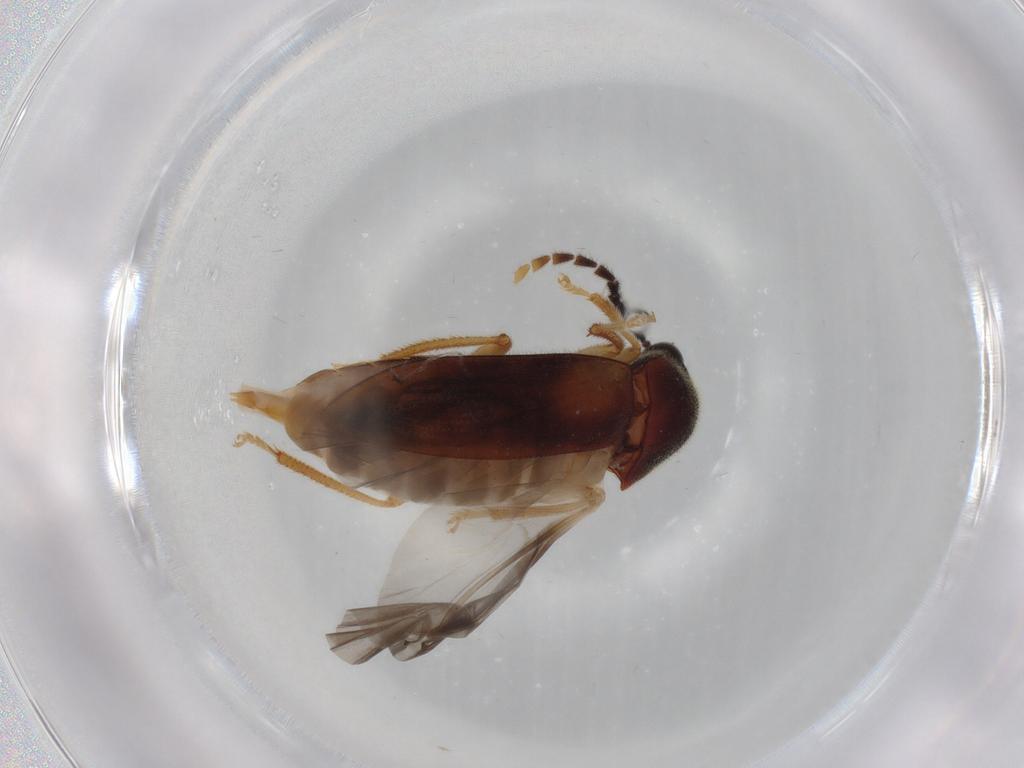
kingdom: Animalia
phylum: Arthropoda
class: Insecta
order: Coleoptera
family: Ptilodactylidae
